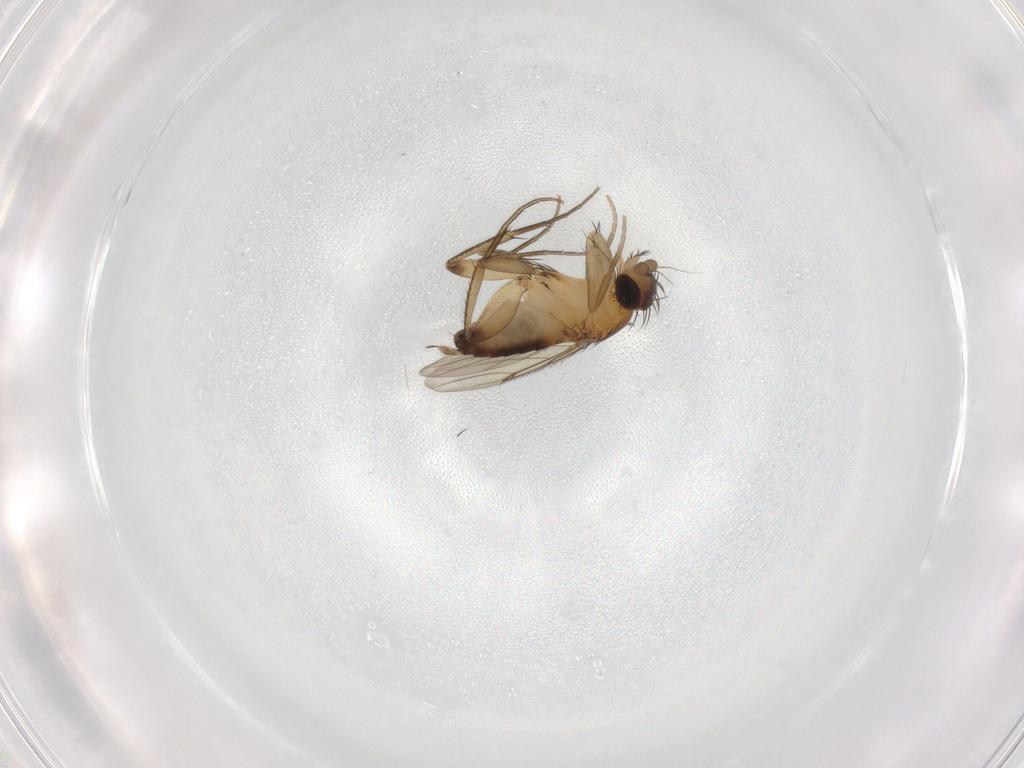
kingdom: Animalia
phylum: Arthropoda
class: Insecta
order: Diptera
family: Phoridae
